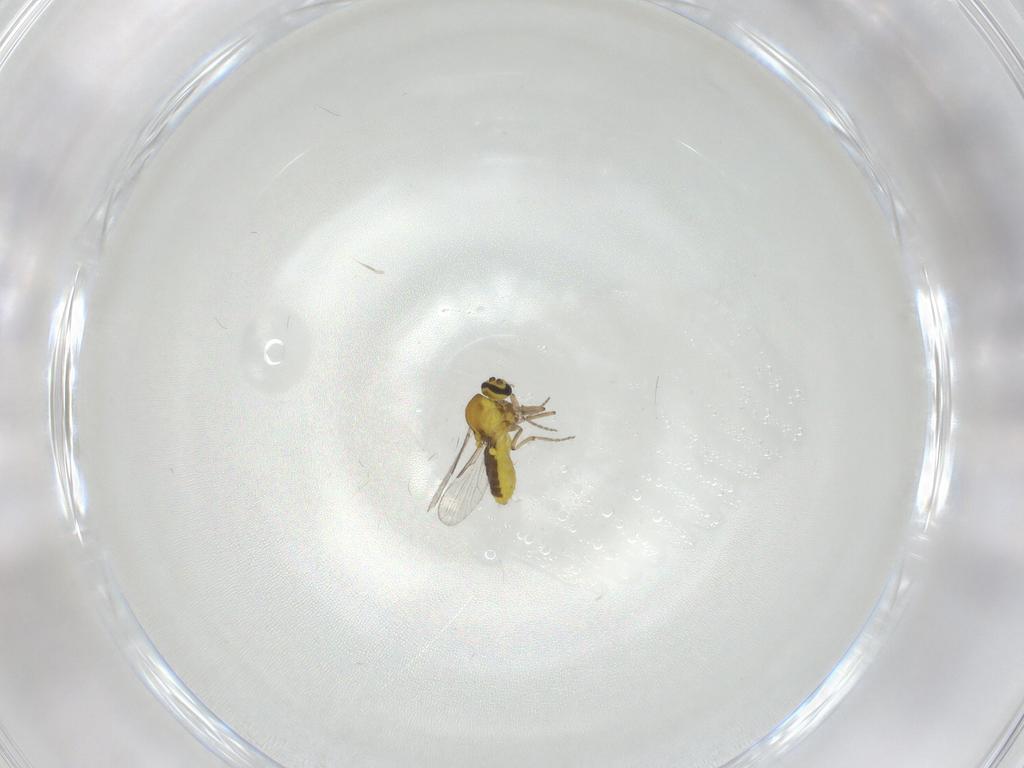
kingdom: Animalia
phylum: Arthropoda
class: Insecta
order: Diptera
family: Ceratopogonidae
